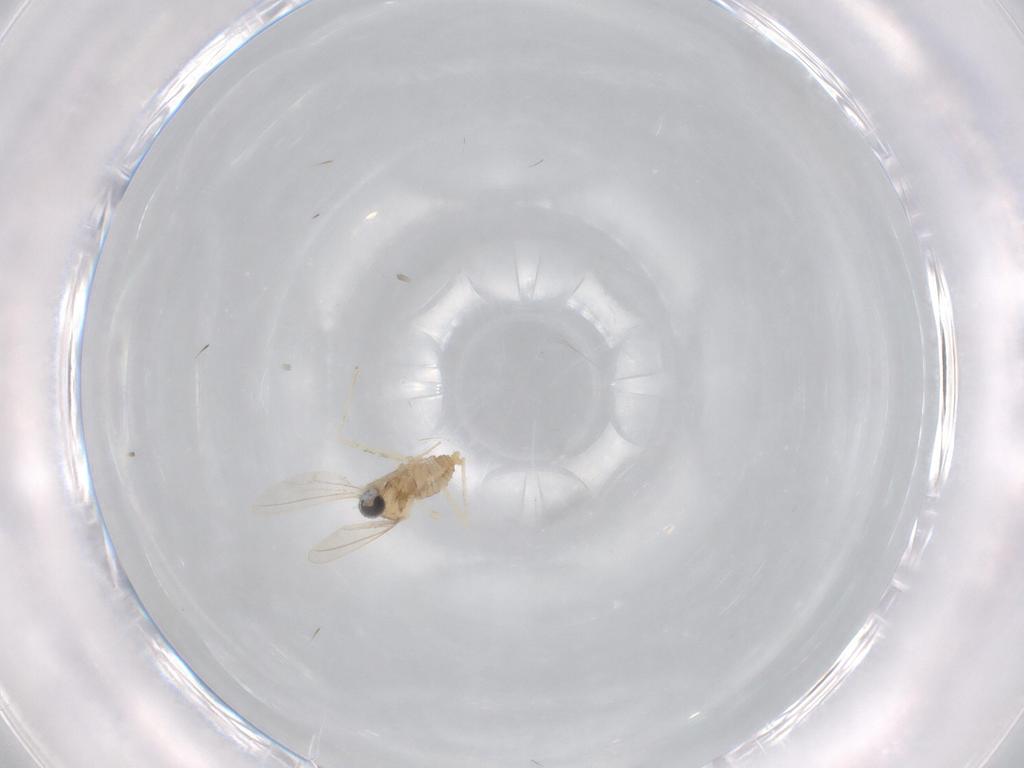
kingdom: Animalia
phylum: Arthropoda
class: Insecta
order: Diptera
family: Cecidomyiidae
